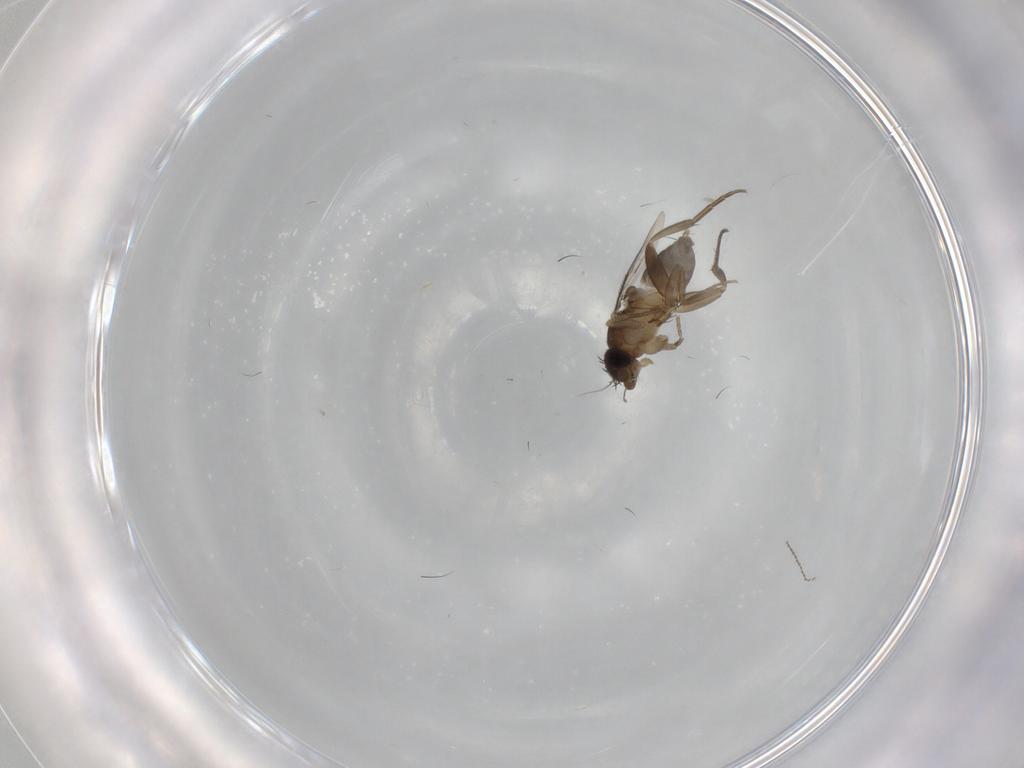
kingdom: Animalia
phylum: Arthropoda
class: Insecta
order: Diptera
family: Phoridae
